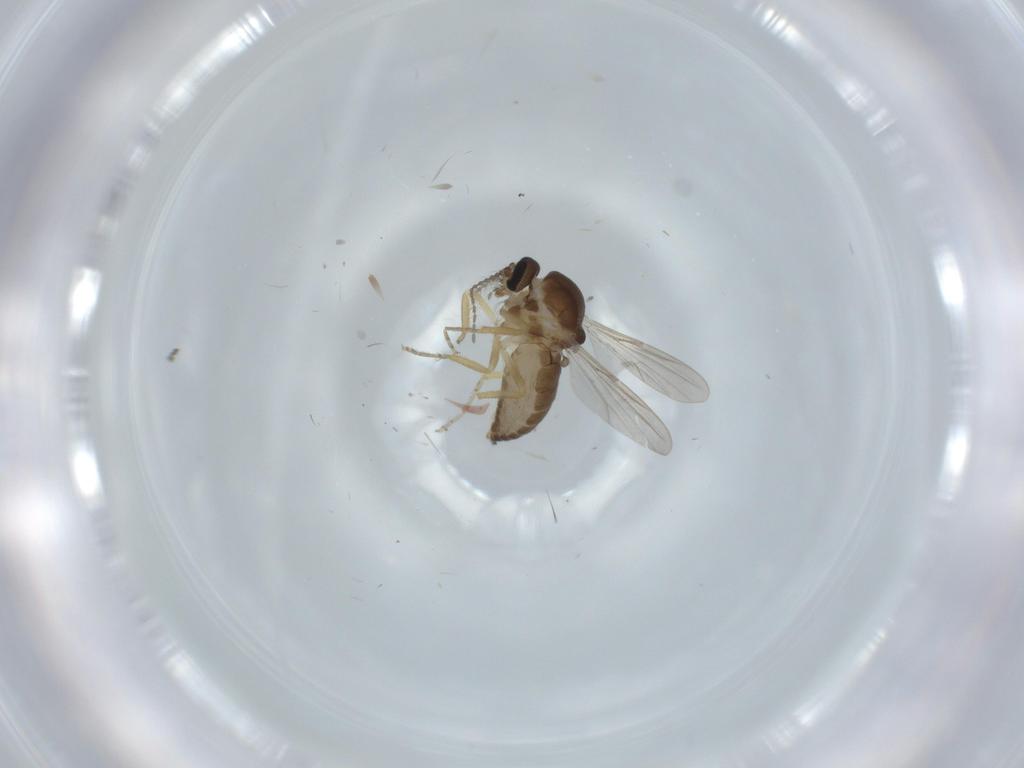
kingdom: Animalia
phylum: Arthropoda
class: Insecta
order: Diptera
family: Ceratopogonidae
